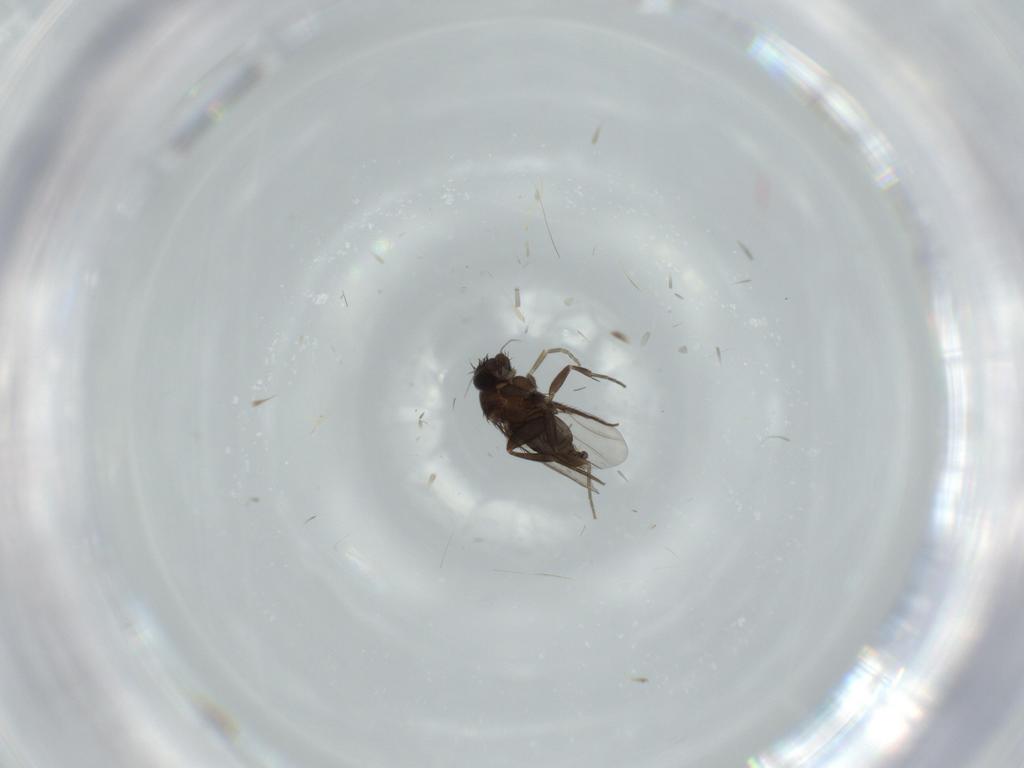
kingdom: Animalia
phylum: Arthropoda
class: Insecta
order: Diptera
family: Phoridae
